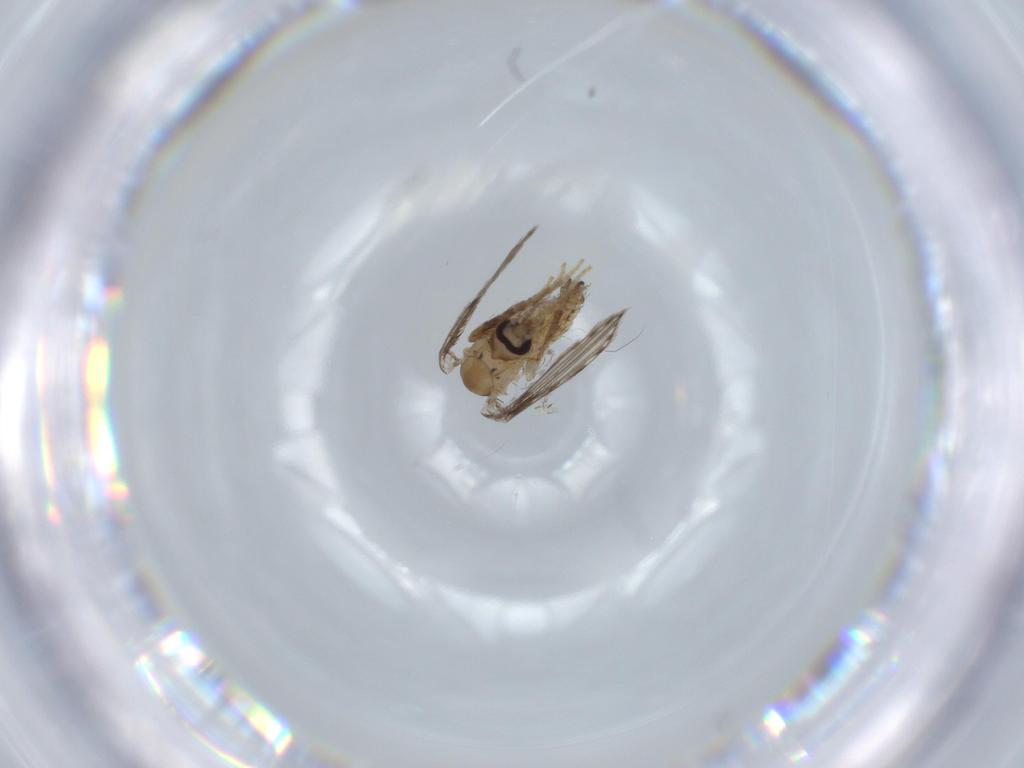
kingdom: Animalia
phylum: Arthropoda
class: Insecta
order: Diptera
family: Psychodidae
